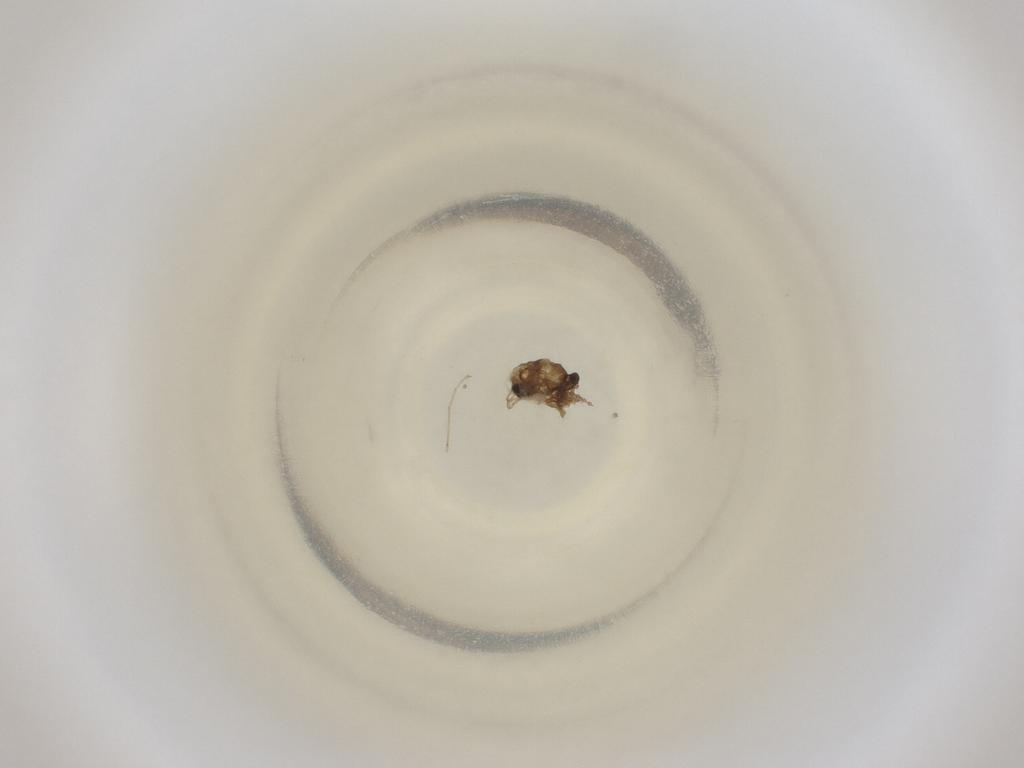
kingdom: Animalia
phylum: Arthropoda
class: Insecta
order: Diptera
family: Cecidomyiidae
